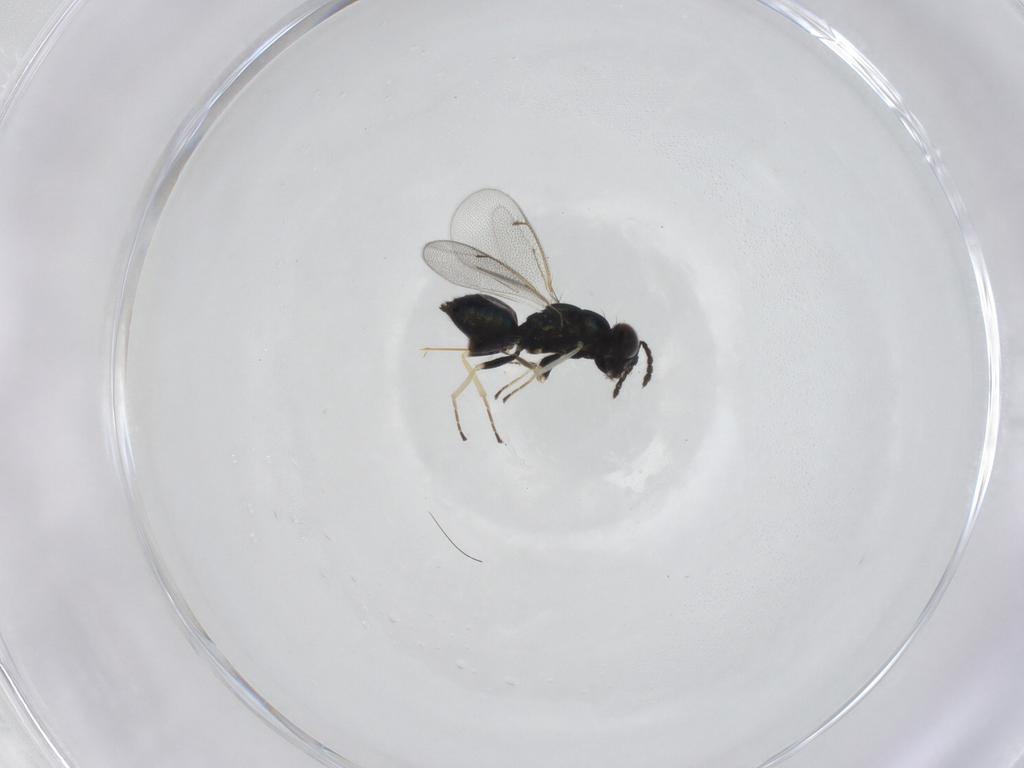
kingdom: Animalia
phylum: Arthropoda
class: Insecta
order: Hymenoptera
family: Eulophidae
